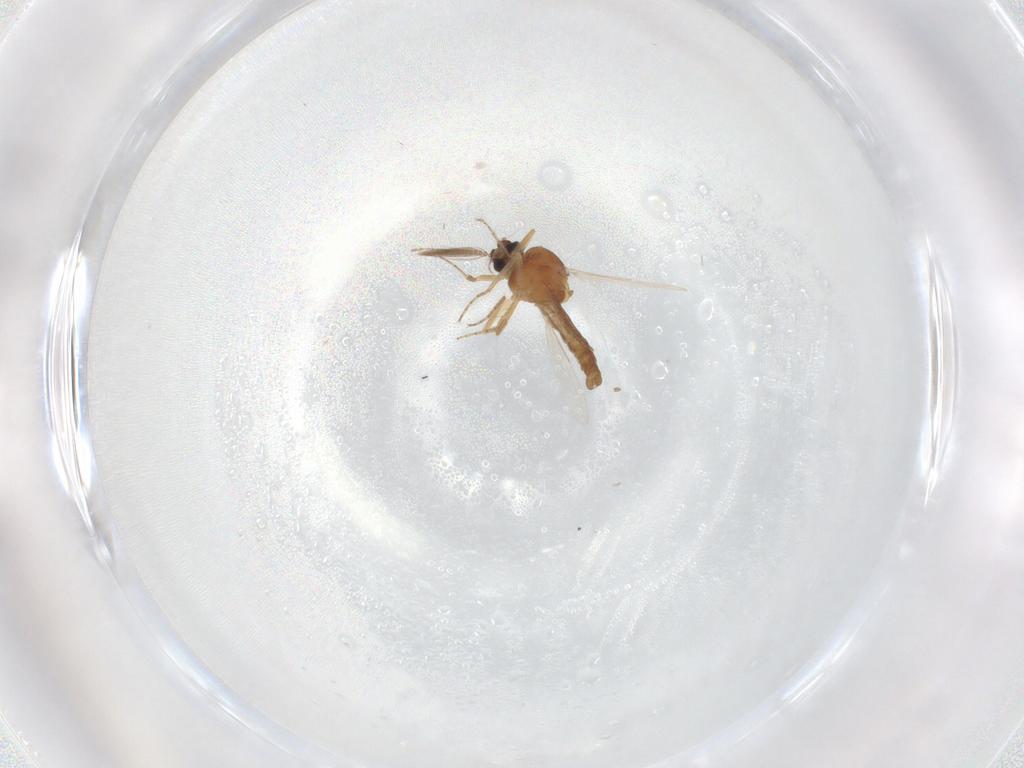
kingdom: Animalia
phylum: Arthropoda
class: Insecta
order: Diptera
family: Ceratopogonidae
